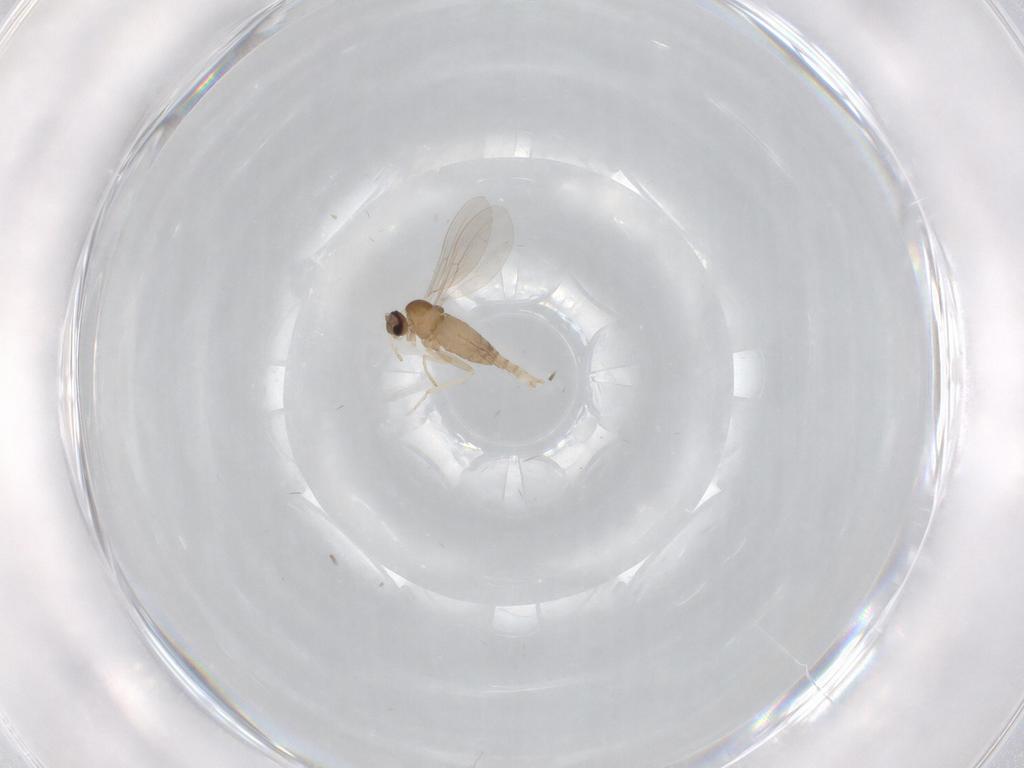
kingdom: Animalia
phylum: Arthropoda
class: Insecta
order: Diptera
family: Cecidomyiidae
